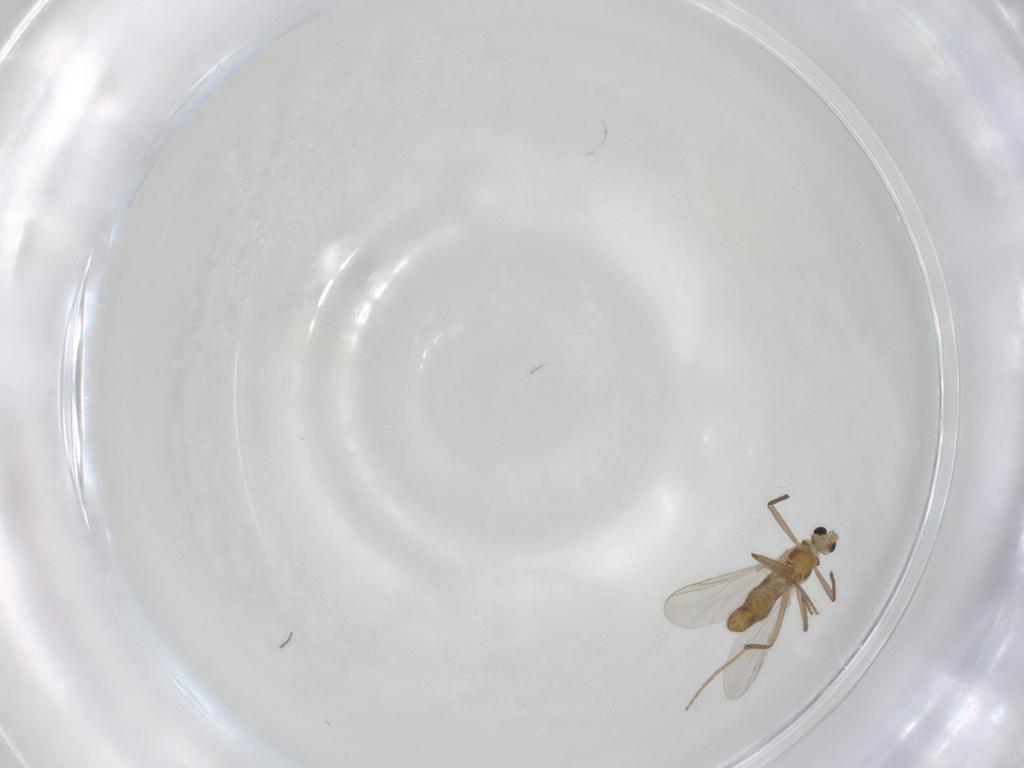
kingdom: Animalia
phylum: Arthropoda
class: Insecta
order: Diptera
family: Chironomidae
